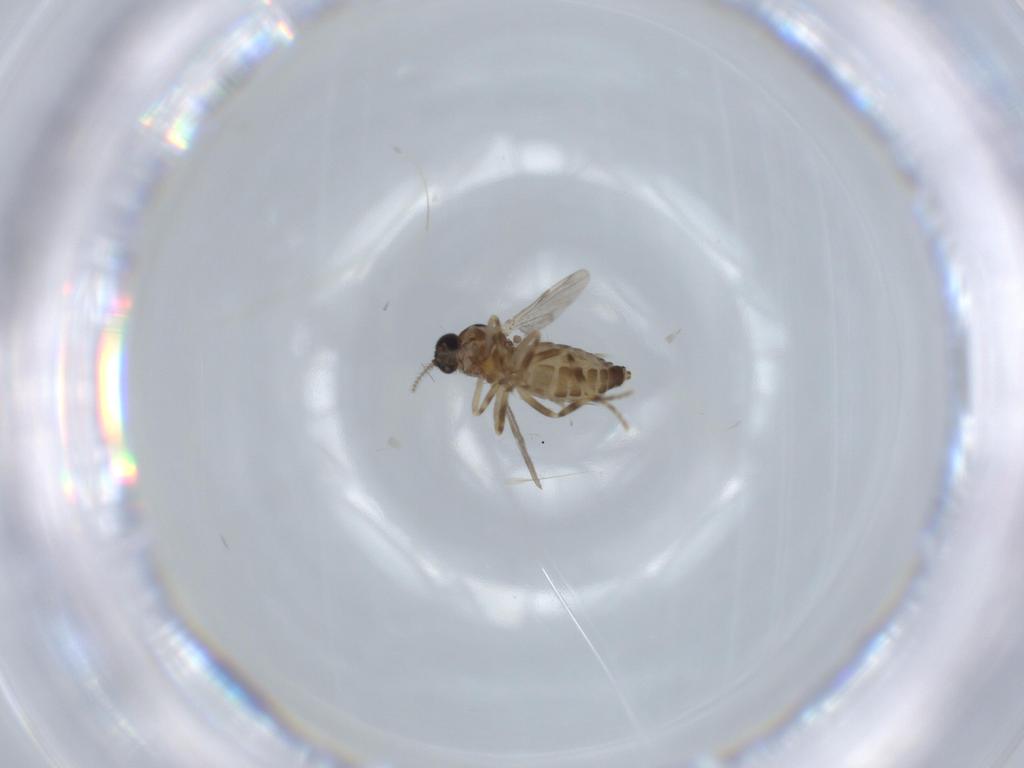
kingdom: Animalia
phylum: Arthropoda
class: Insecta
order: Diptera
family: Ceratopogonidae
